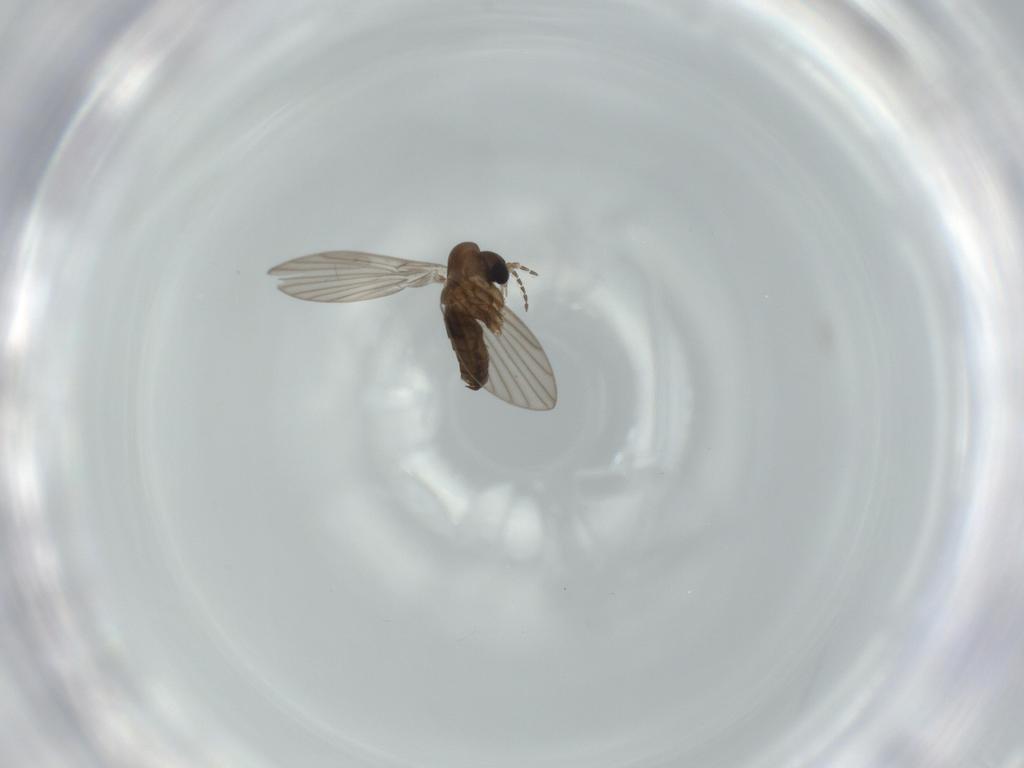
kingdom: Animalia
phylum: Arthropoda
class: Insecta
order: Diptera
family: Psychodidae
